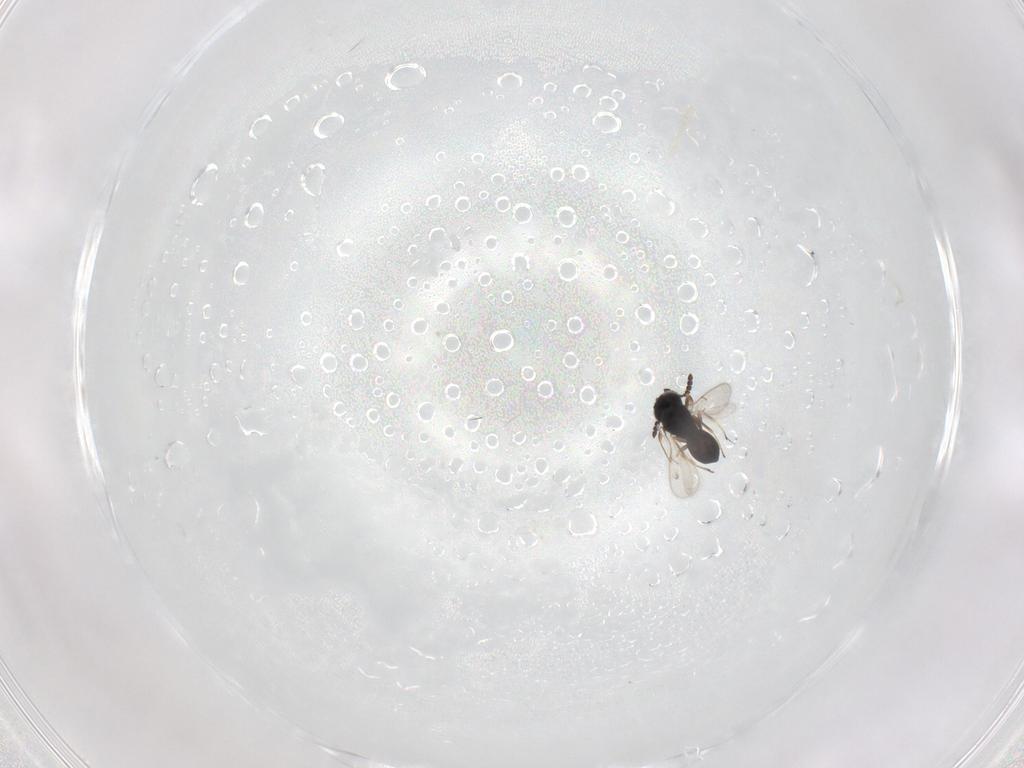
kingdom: Animalia
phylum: Arthropoda
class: Insecta
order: Hymenoptera
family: Scelionidae
